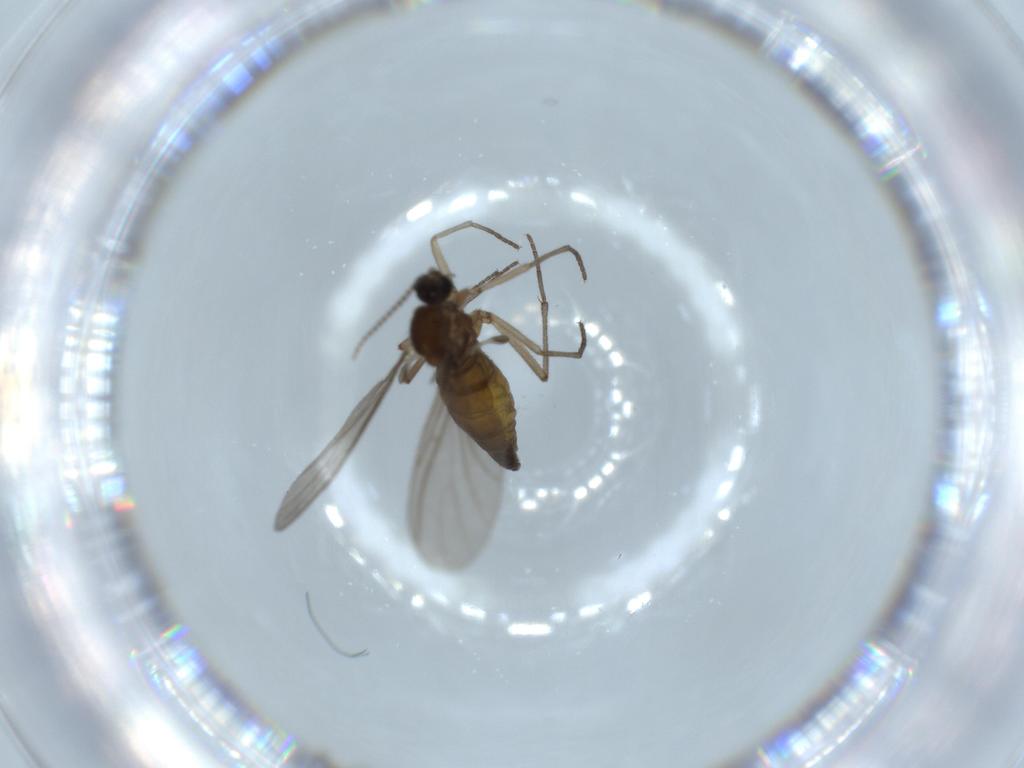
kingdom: Animalia
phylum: Arthropoda
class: Insecta
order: Diptera
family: Sciaridae
